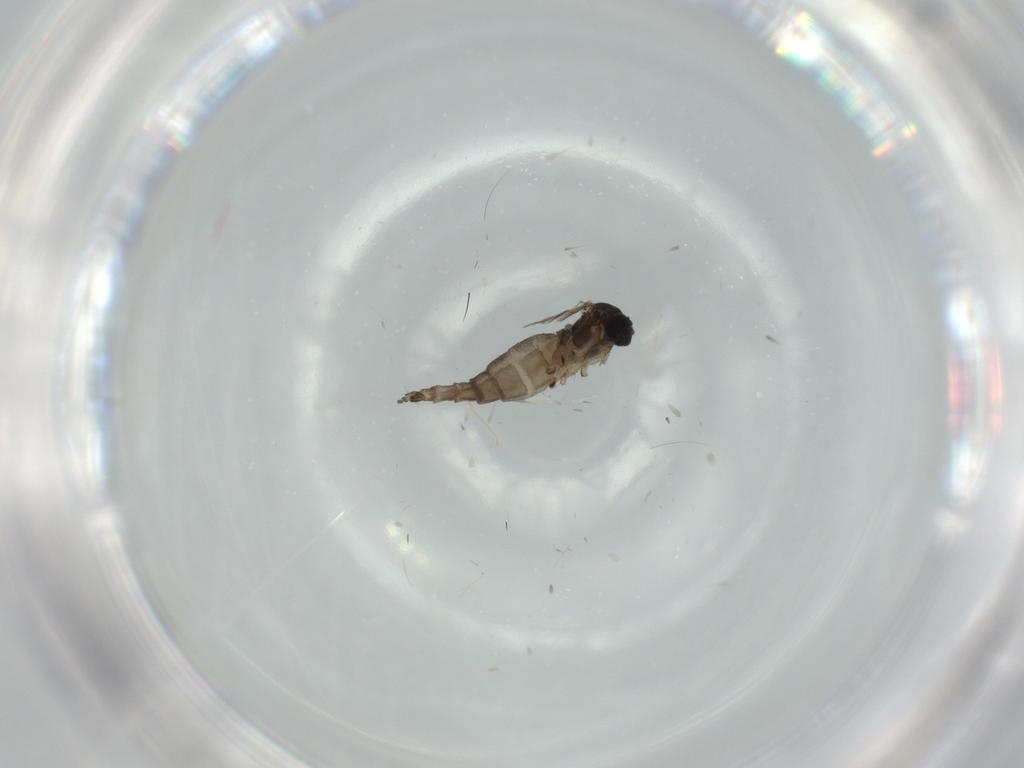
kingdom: Animalia
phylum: Arthropoda
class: Insecta
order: Diptera
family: Sciaridae
